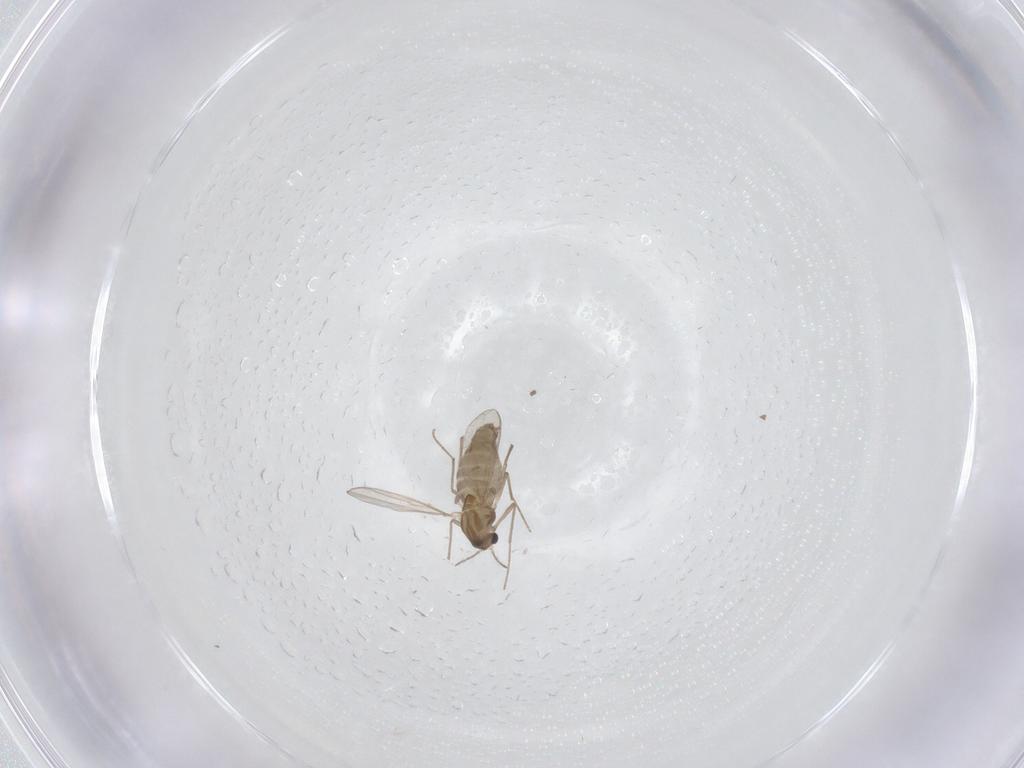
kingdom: Animalia
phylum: Arthropoda
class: Insecta
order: Diptera
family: Chironomidae
